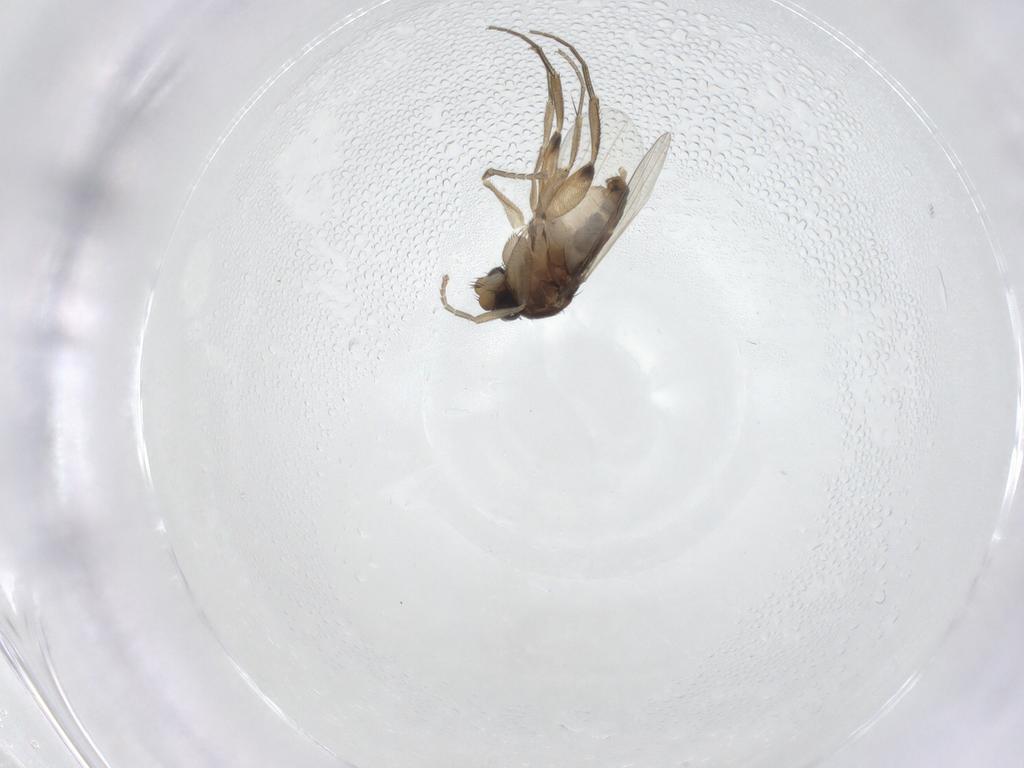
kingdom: Animalia
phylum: Arthropoda
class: Insecta
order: Diptera
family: Phoridae
